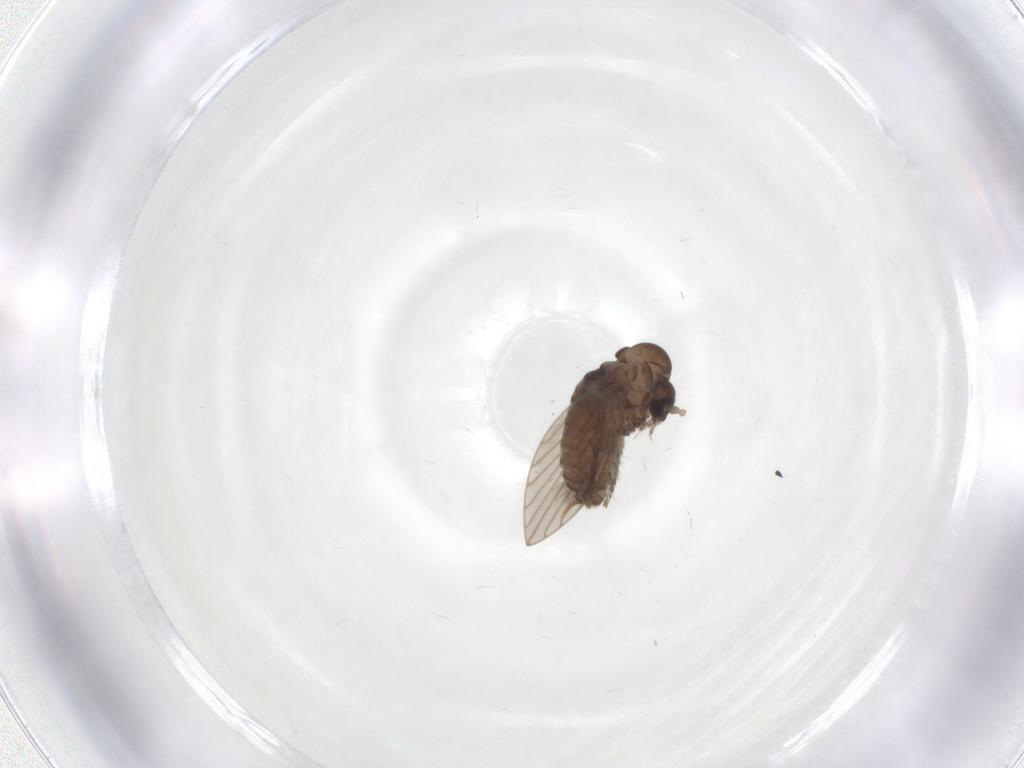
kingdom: Animalia
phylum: Arthropoda
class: Insecta
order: Diptera
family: Psychodidae
